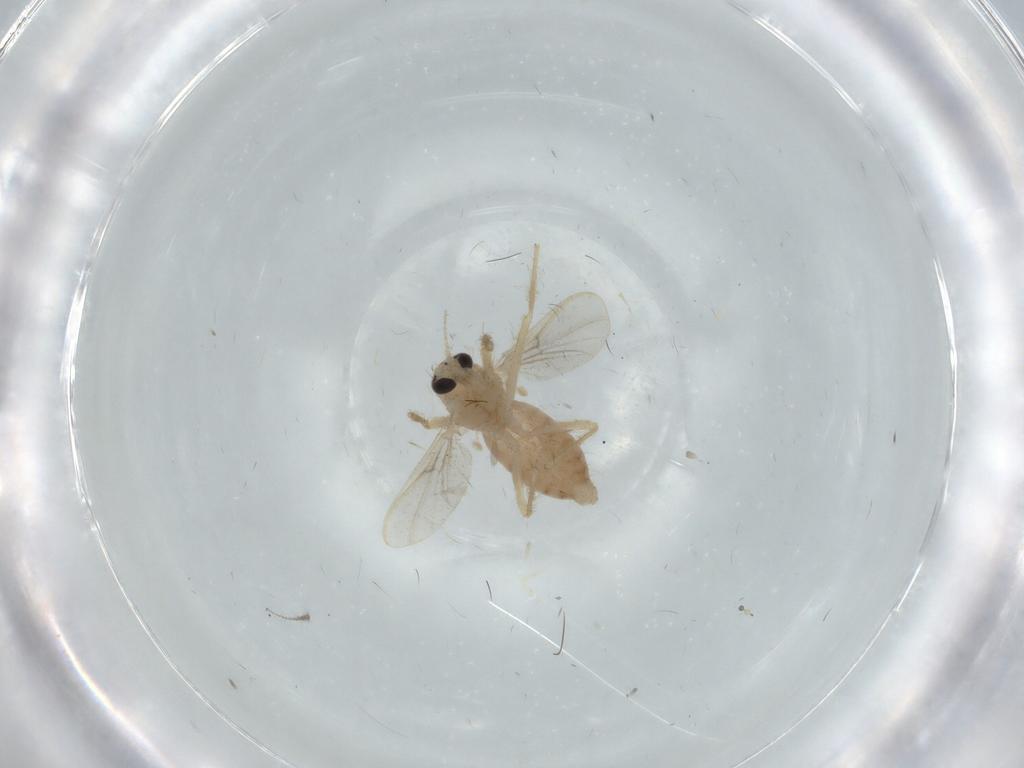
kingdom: Animalia
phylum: Arthropoda
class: Insecta
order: Diptera
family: Chironomidae
